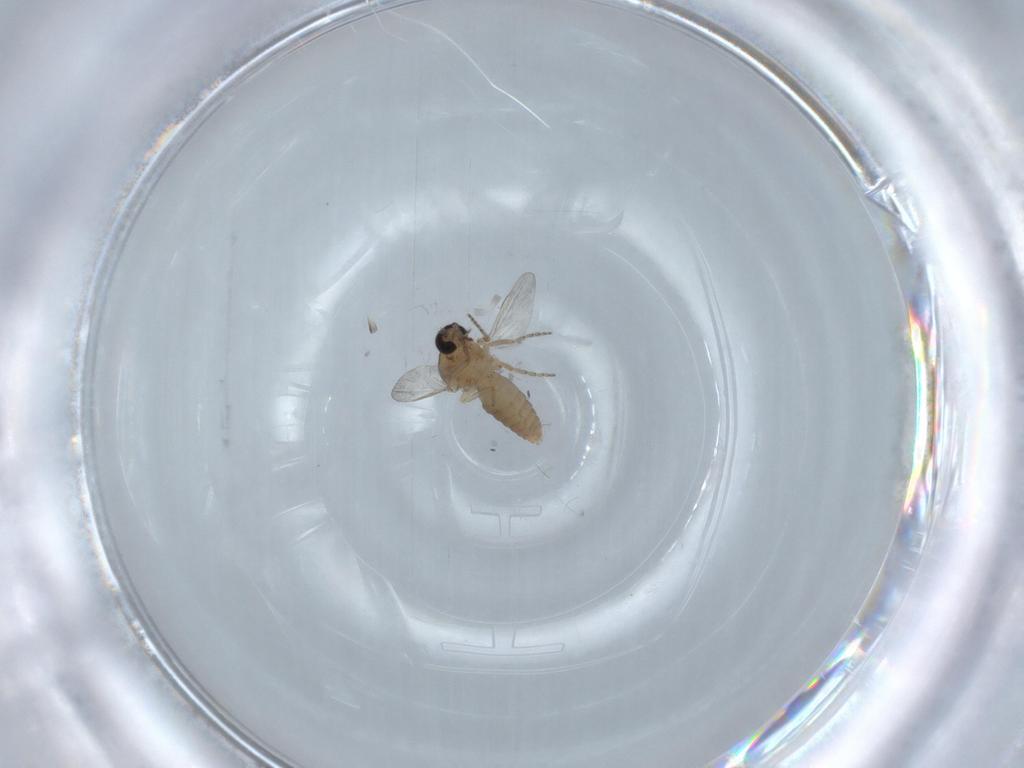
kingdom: Animalia
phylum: Arthropoda
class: Insecta
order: Diptera
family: Ceratopogonidae
